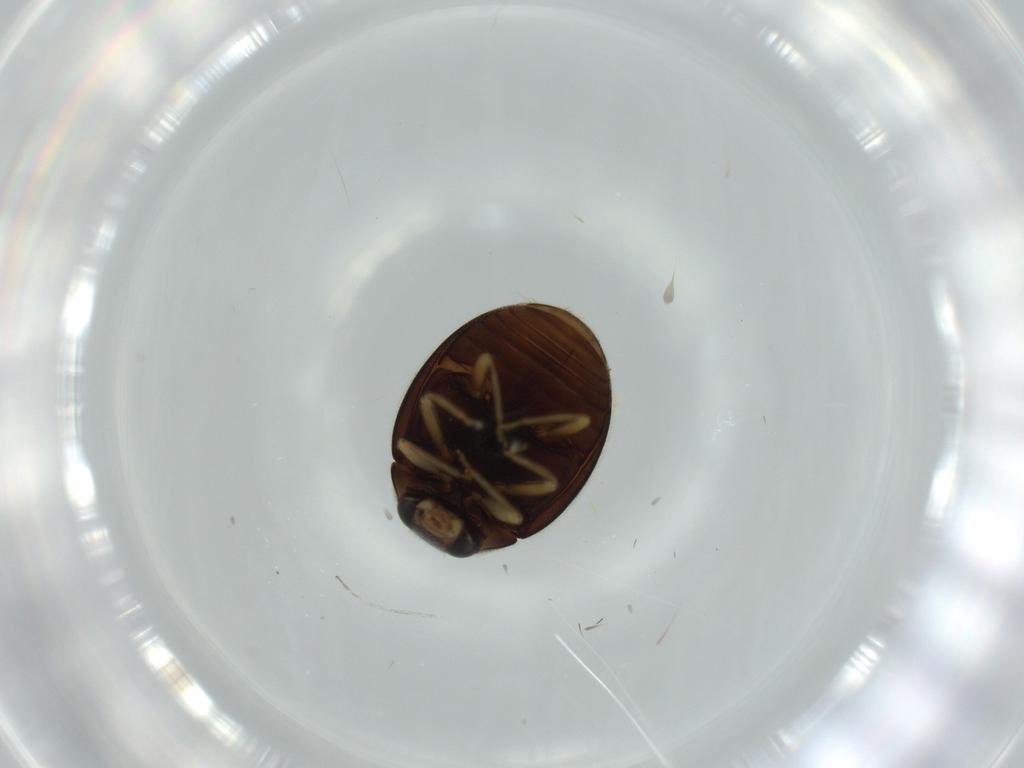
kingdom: Animalia
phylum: Arthropoda
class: Insecta
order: Coleoptera
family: Coccinellidae
